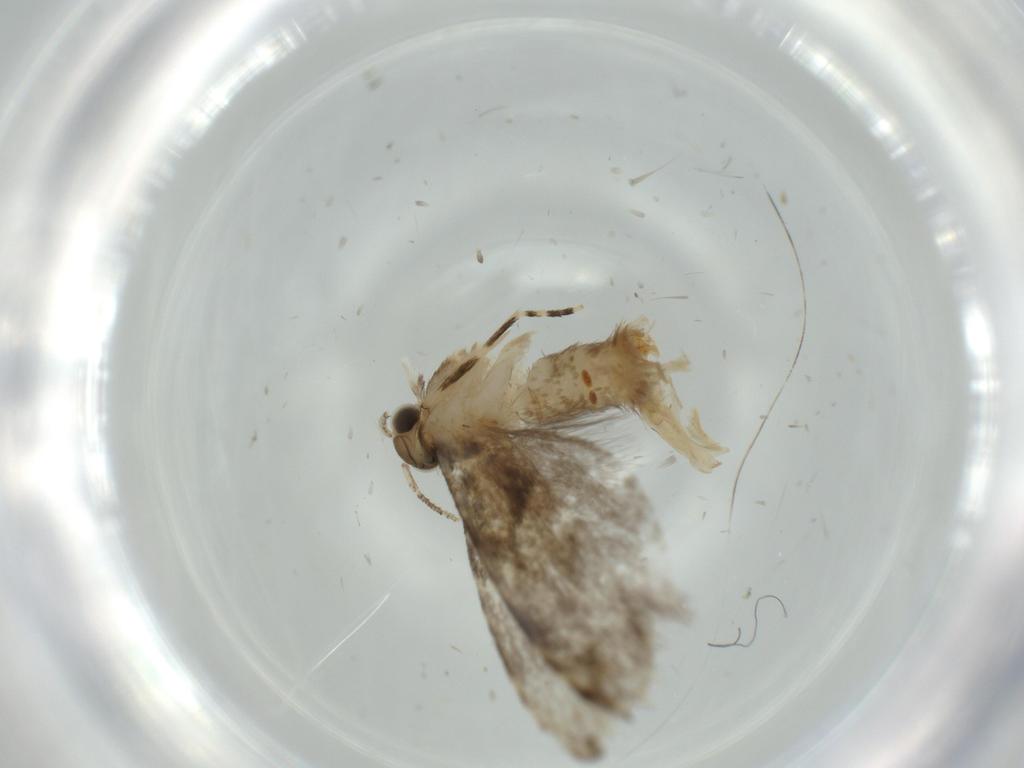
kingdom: Animalia
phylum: Arthropoda
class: Insecta
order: Lepidoptera
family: Tineidae
